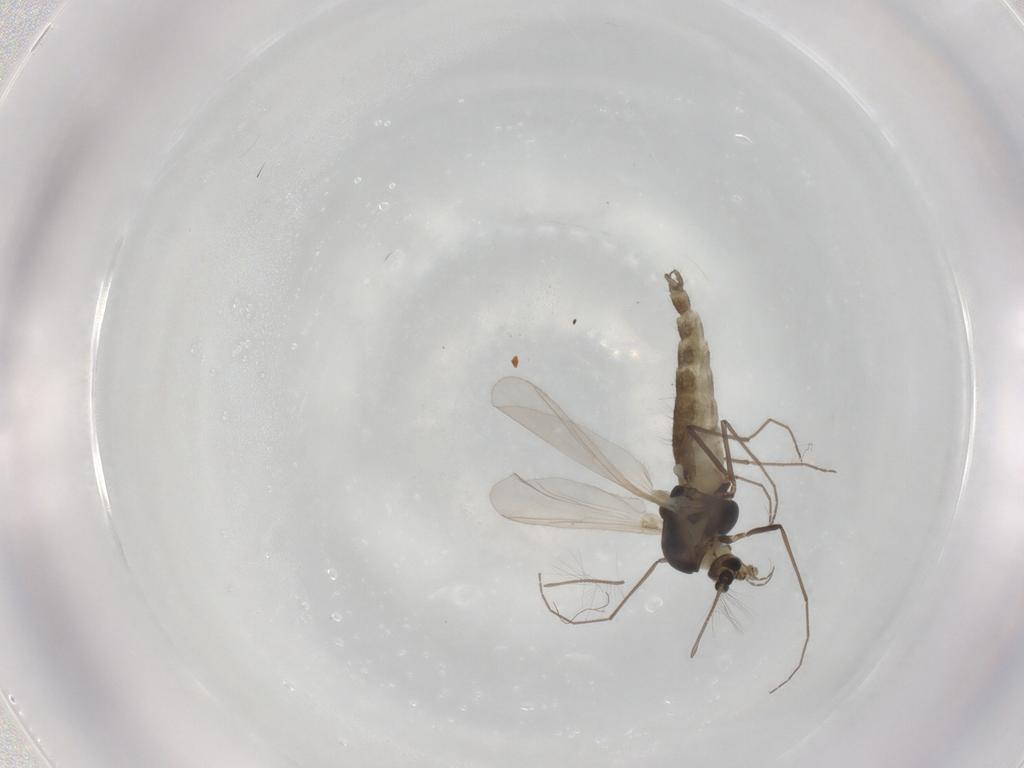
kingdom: Animalia
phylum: Arthropoda
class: Insecta
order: Diptera
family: Chironomidae
